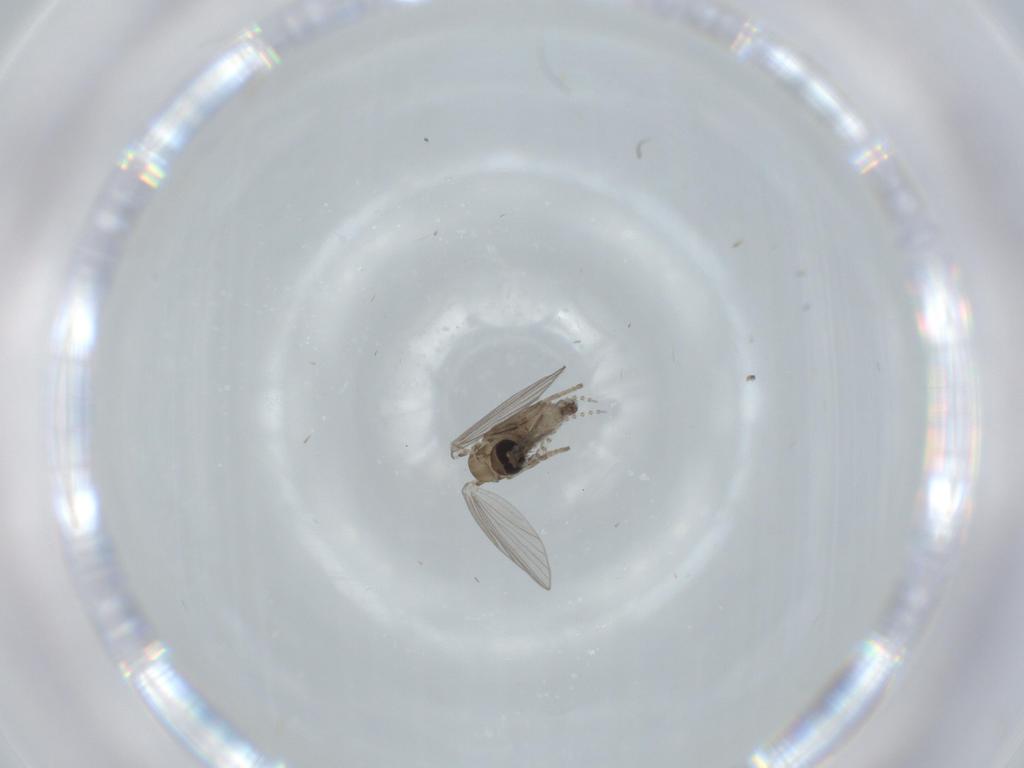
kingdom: Animalia
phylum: Arthropoda
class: Insecta
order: Diptera
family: Psychodidae
